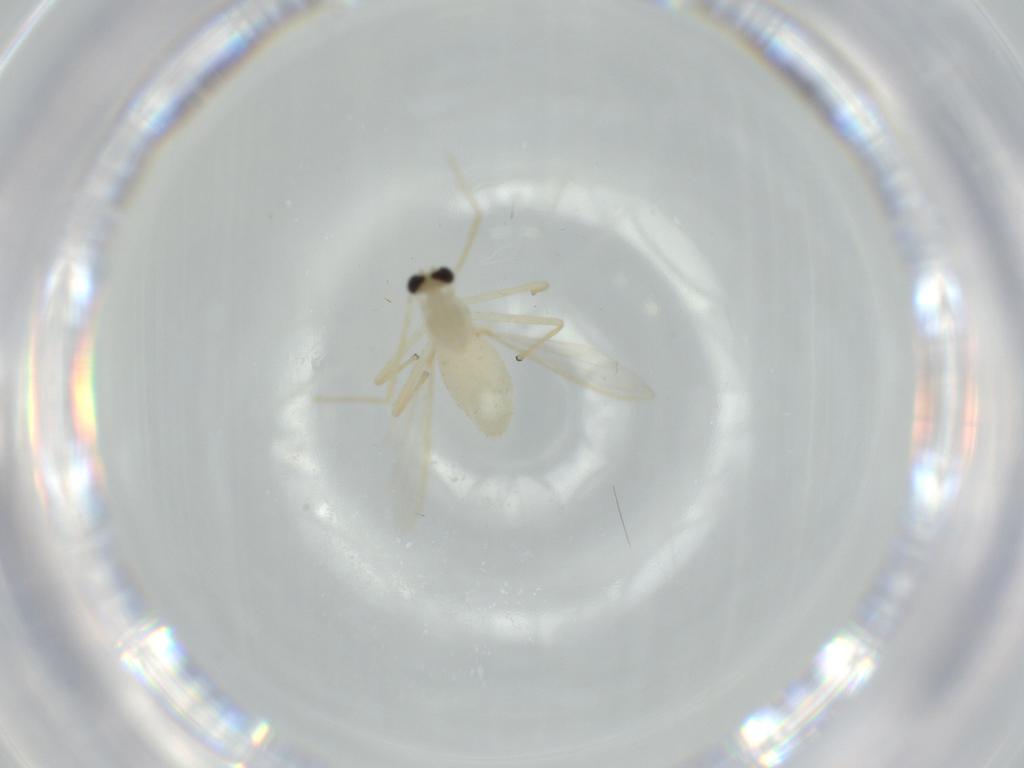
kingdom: Animalia
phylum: Arthropoda
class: Insecta
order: Diptera
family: Chironomidae
